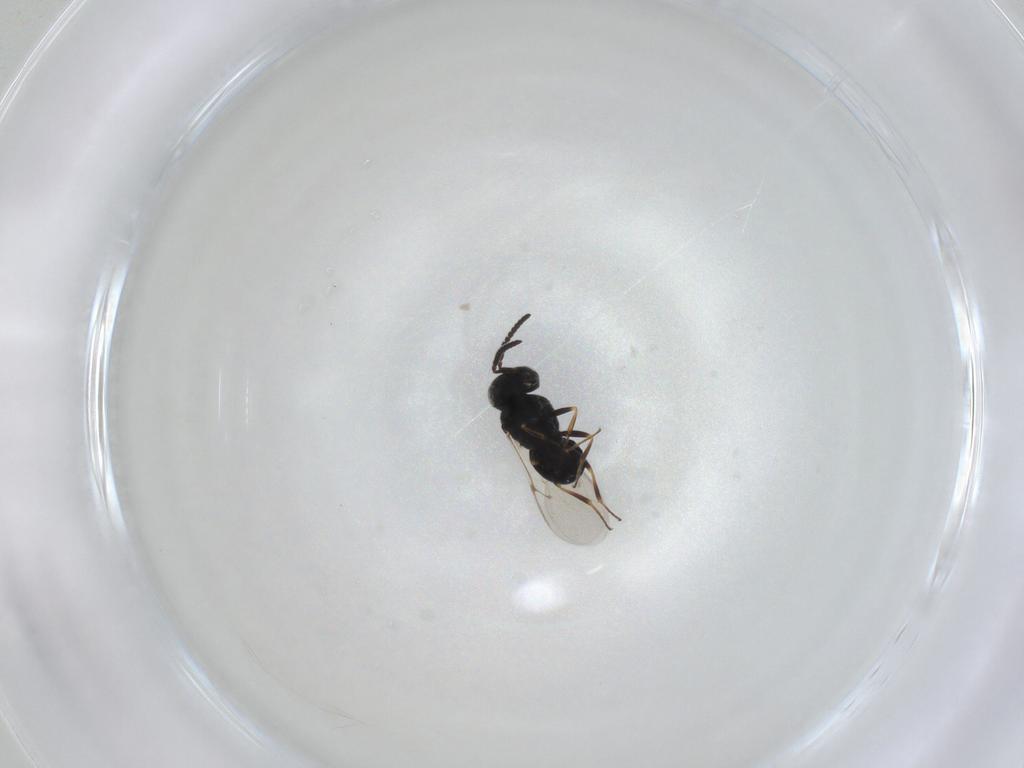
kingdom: Animalia
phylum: Arthropoda
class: Insecta
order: Hymenoptera
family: Scelionidae
